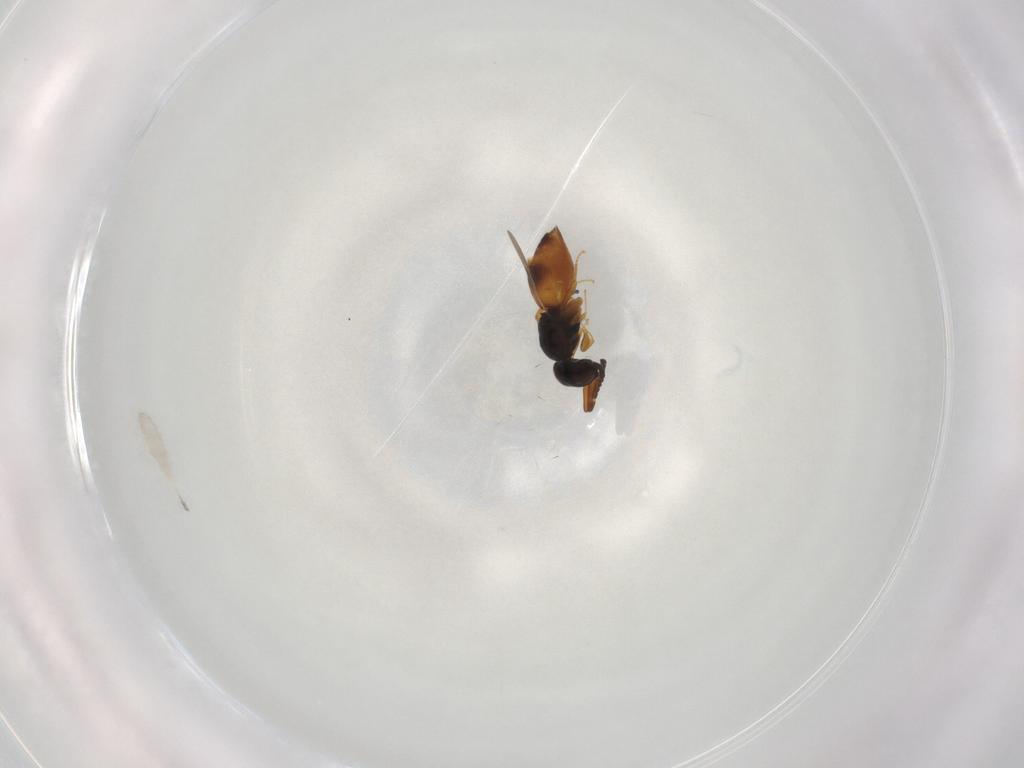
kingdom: Animalia
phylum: Arthropoda
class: Insecta
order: Hymenoptera
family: Ceraphronidae
